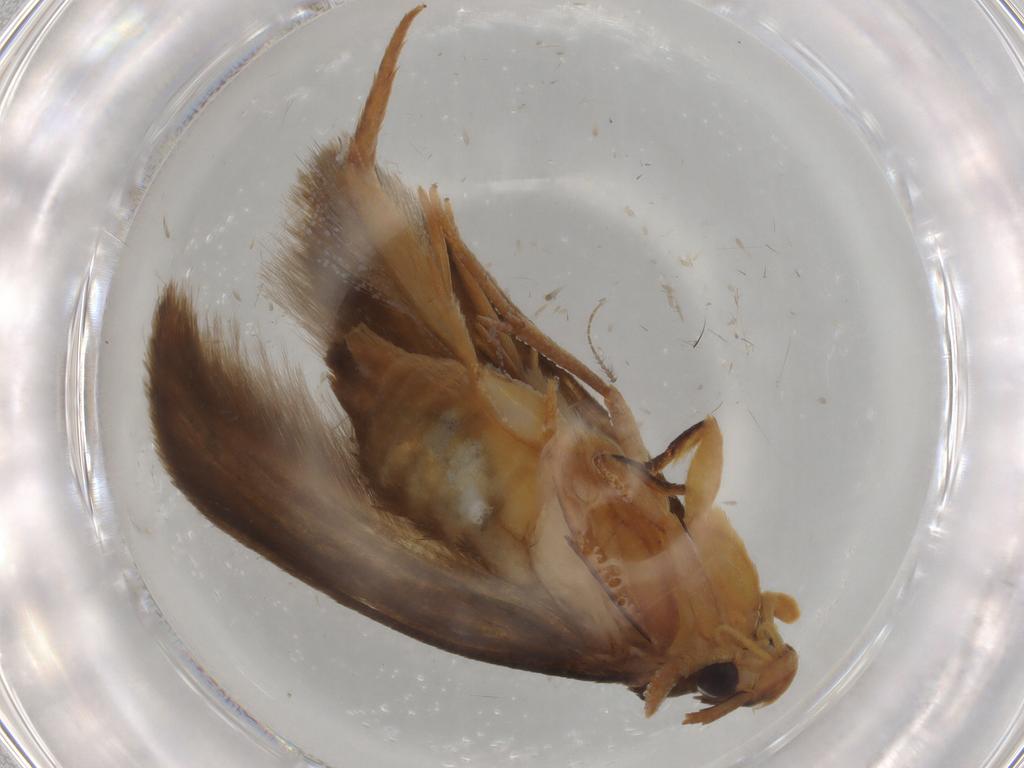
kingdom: Animalia
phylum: Arthropoda
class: Insecta
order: Lepidoptera
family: Tineidae
